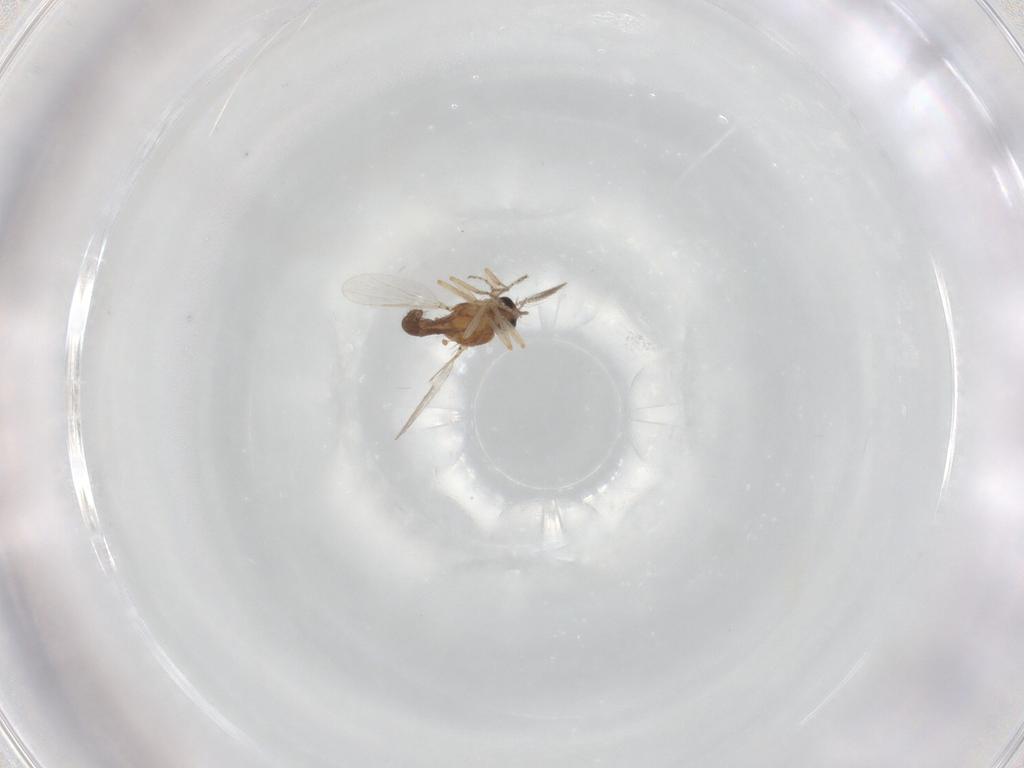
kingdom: Animalia
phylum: Arthropoda
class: Insecta
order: Diptera
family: Ceratopogonidae
